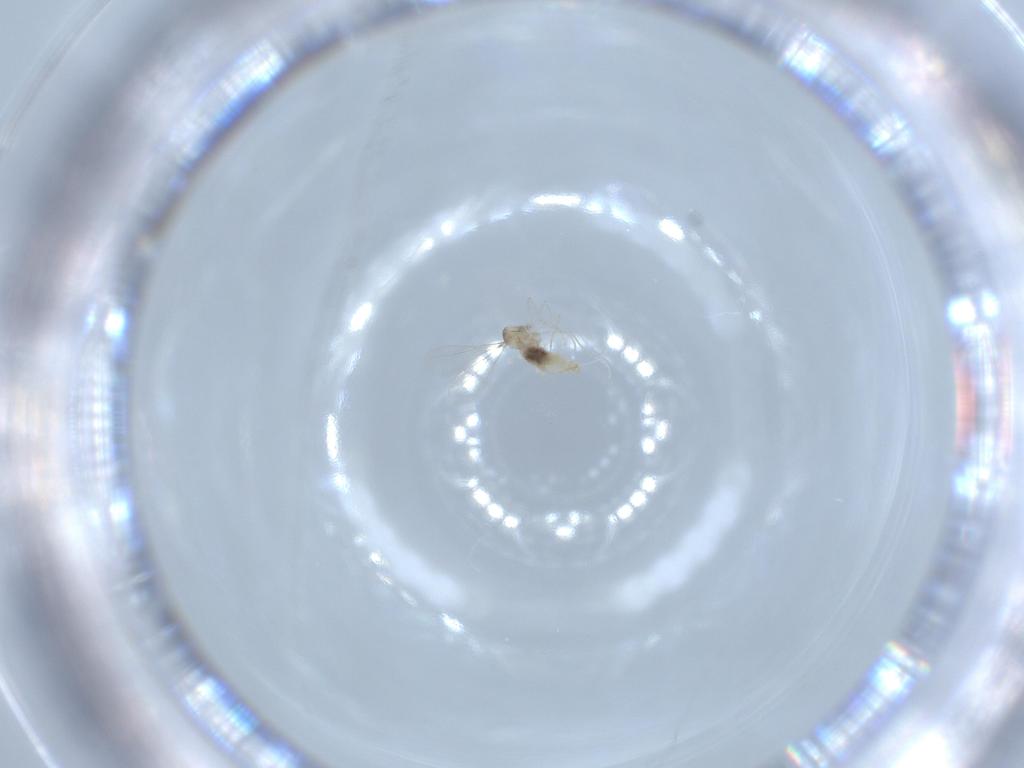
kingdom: Animalia
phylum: Arthropoda
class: Insecta
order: Diptera
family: Cecidomyiidae
